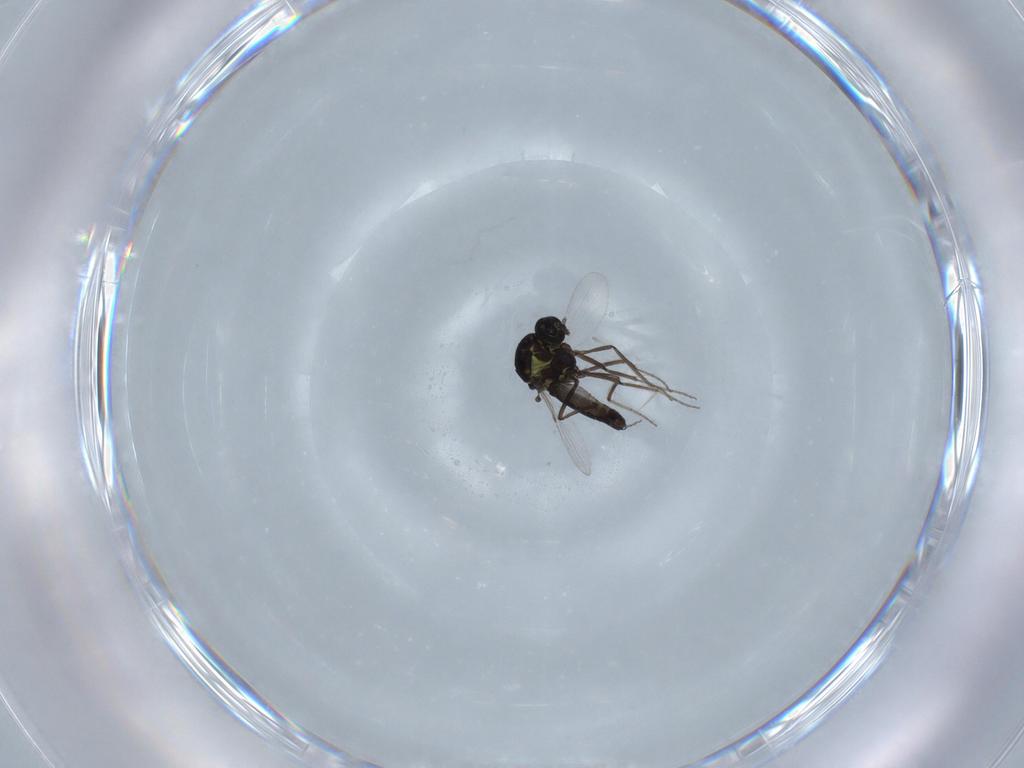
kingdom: Animalia
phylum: Arthropoda
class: Insecta
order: Diptera
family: Ceratopogonidae
